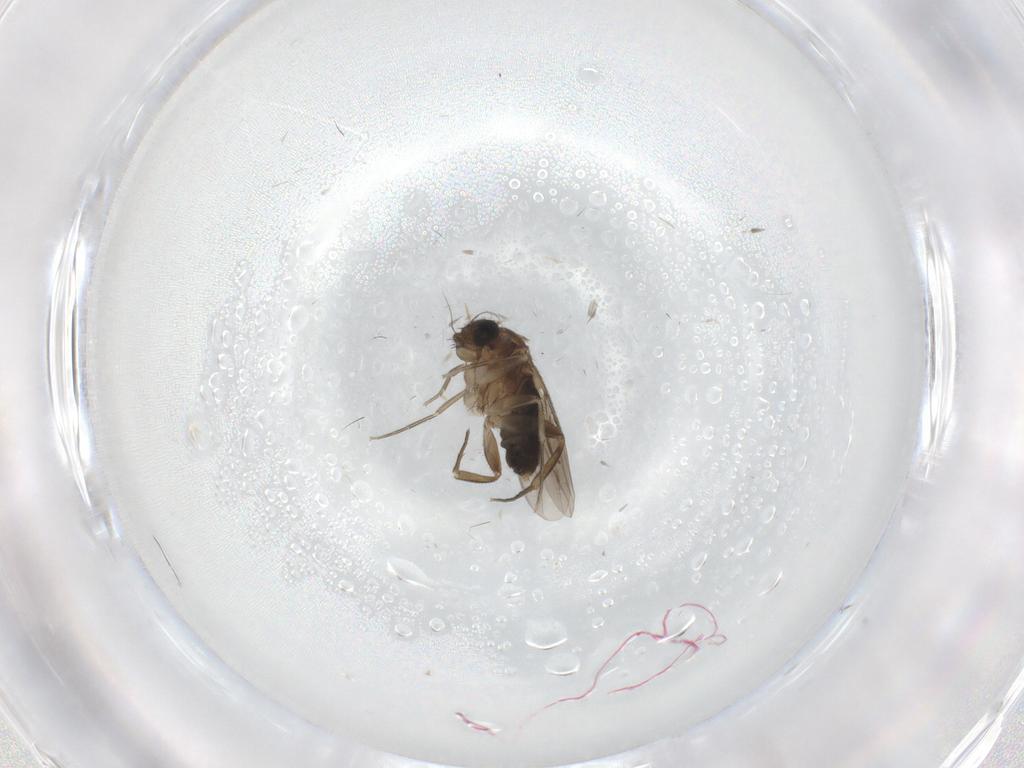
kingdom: Animalia
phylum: Arthropoda
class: Insecta
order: Diptera
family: Phoridae
